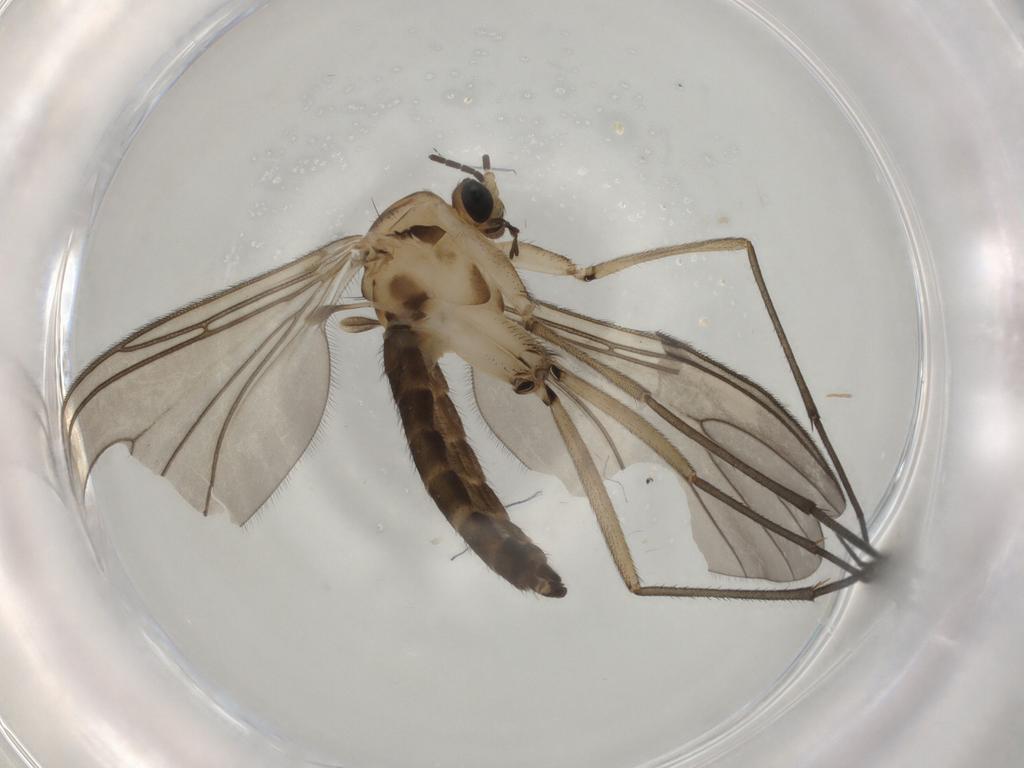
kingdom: Animalia
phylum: Arthropoda
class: Insecta
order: Diptera
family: Sciaridae
